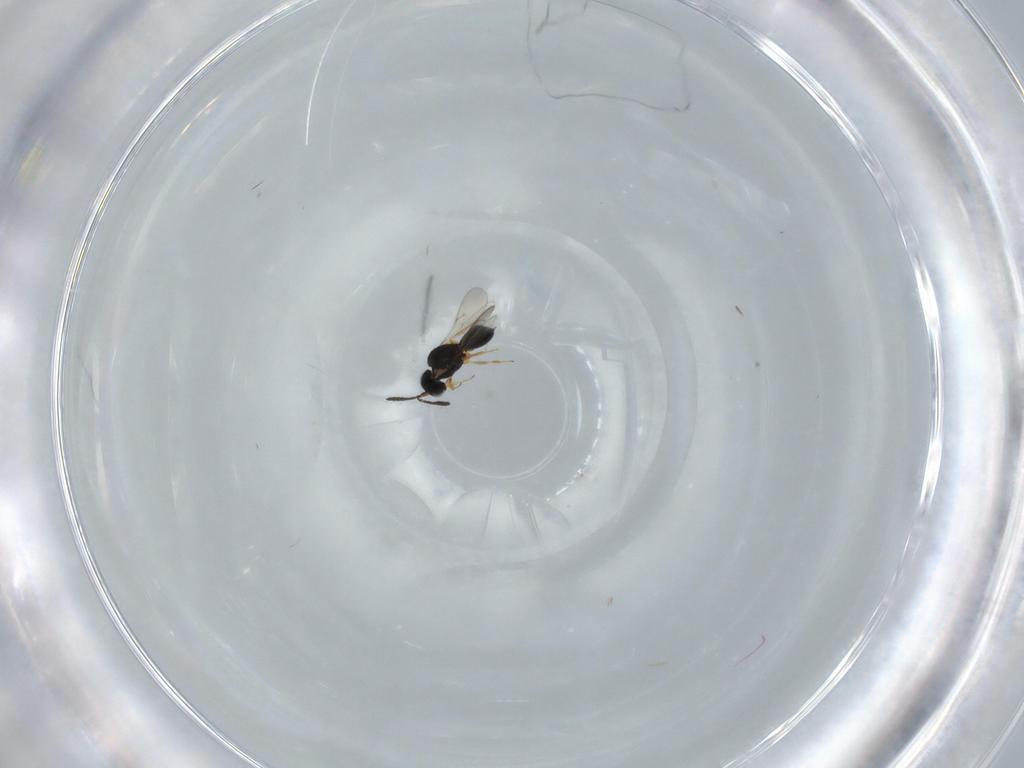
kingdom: Animalia
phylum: Arthropoda
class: Insecta
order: Hymenoptera
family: Scelionidae
